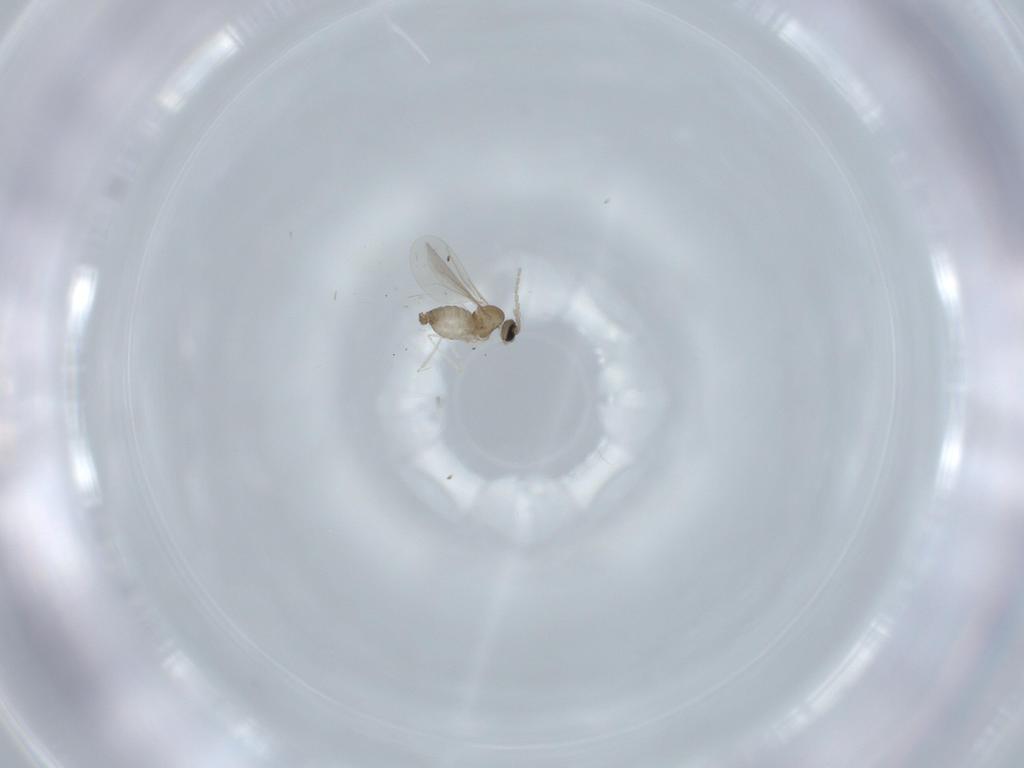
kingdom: Animalia
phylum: Arthropoda
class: Insecta
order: Diptera
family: Cecidomyiidae
